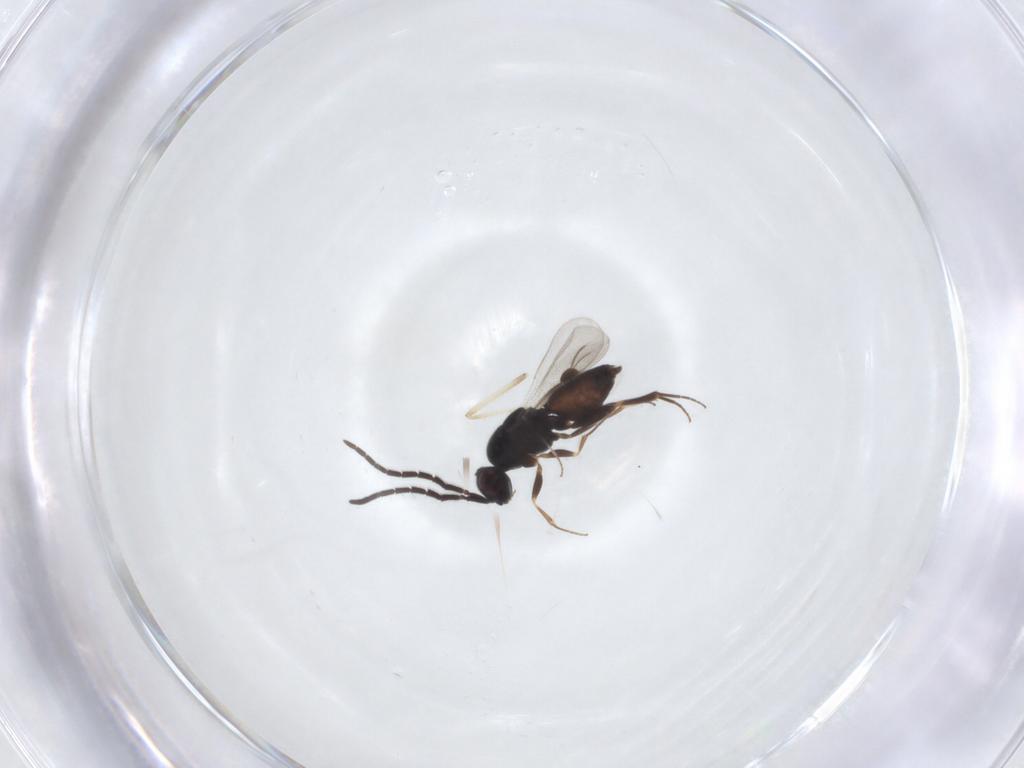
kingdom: Animalia
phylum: Arthropoda
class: Insecta
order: Hymenoptera
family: Megaspilidae
